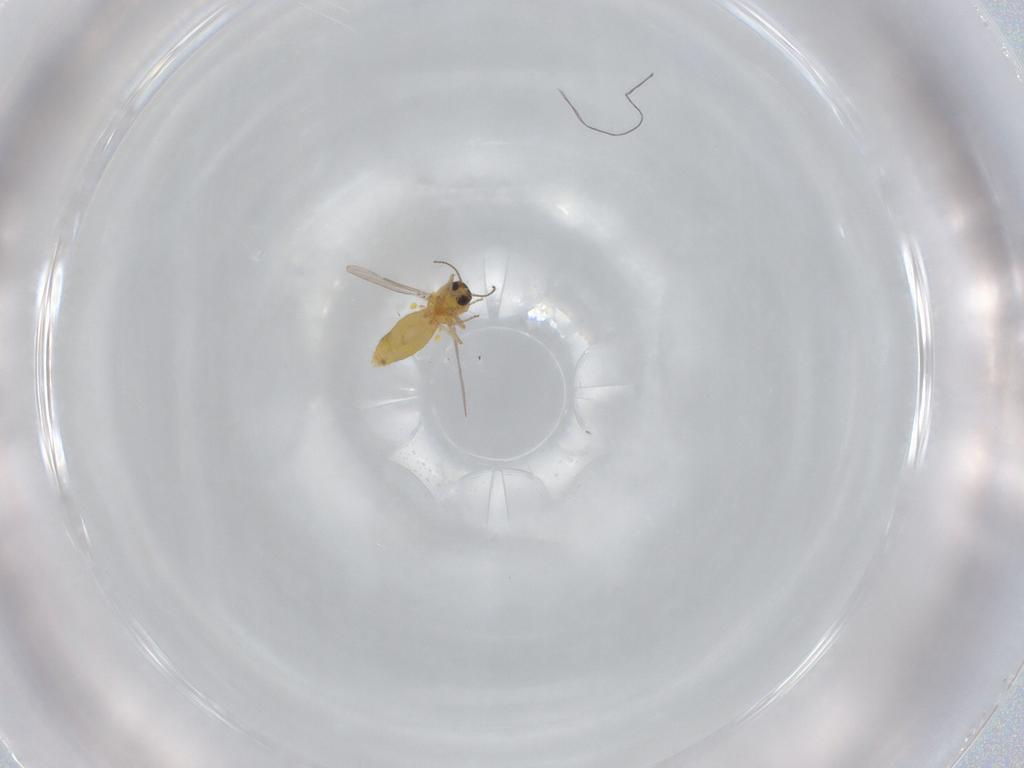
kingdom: Animalia
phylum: Arthropoda
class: Insecta
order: Diptera
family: Ceratopogonidae
